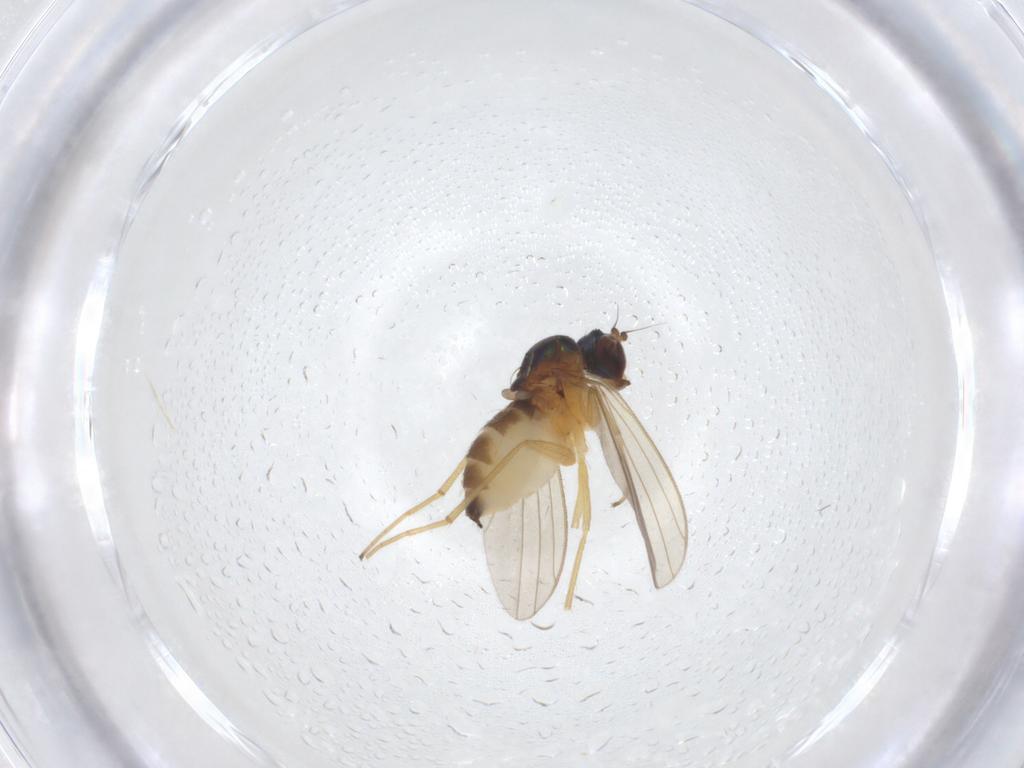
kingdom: Animalia
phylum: Arthropoda
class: Insecta
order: Diptera
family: Dolichopodidae
